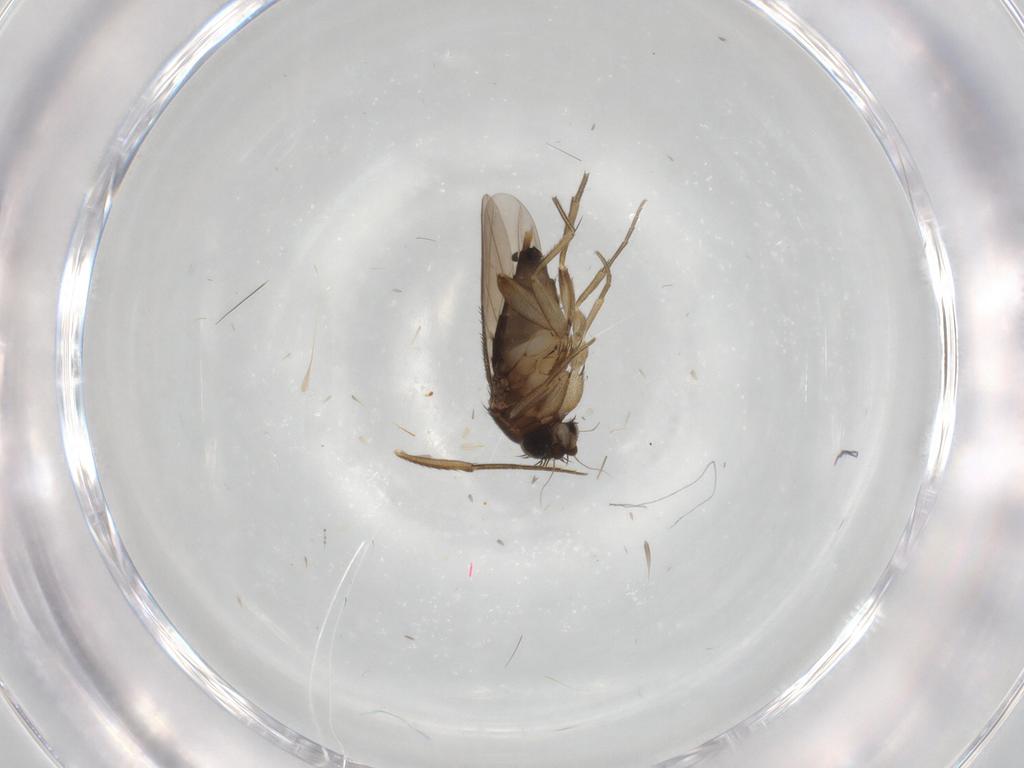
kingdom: Animalia
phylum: Arthropoda
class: Insecta
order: Diptera
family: Phoridae
